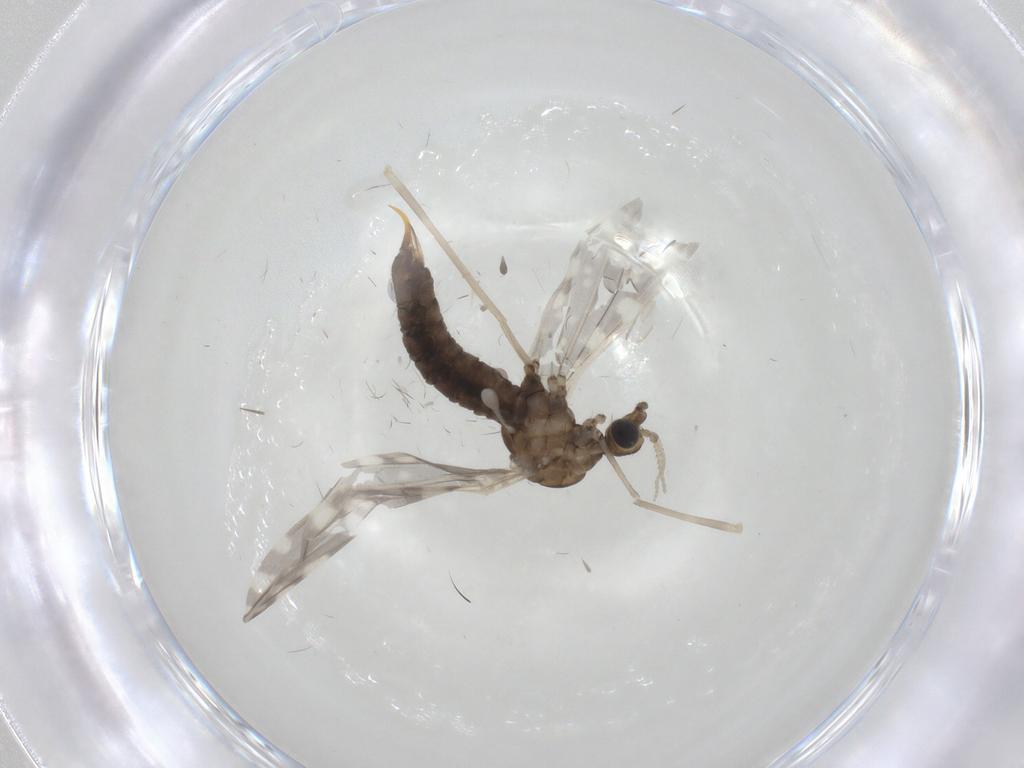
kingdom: Animalia
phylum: Arthropoda
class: Insecta
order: Diptera
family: Limoniidae
